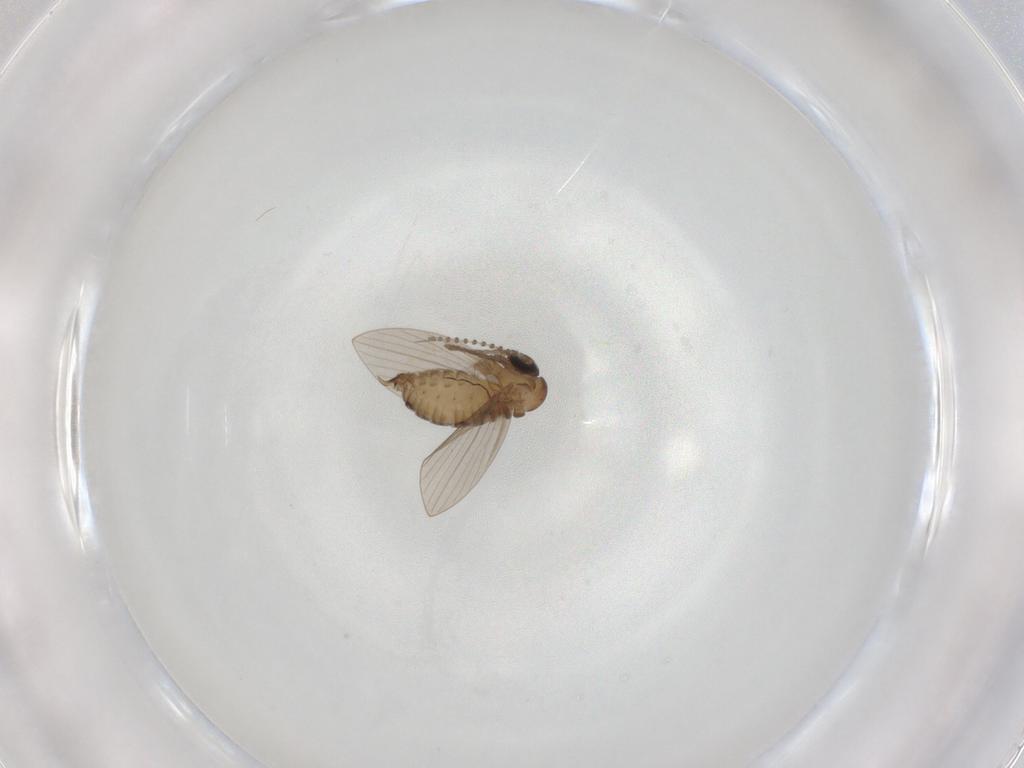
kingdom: Animalia
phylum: Arthropoda
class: Insecta
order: Diptera
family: Psychodidae
